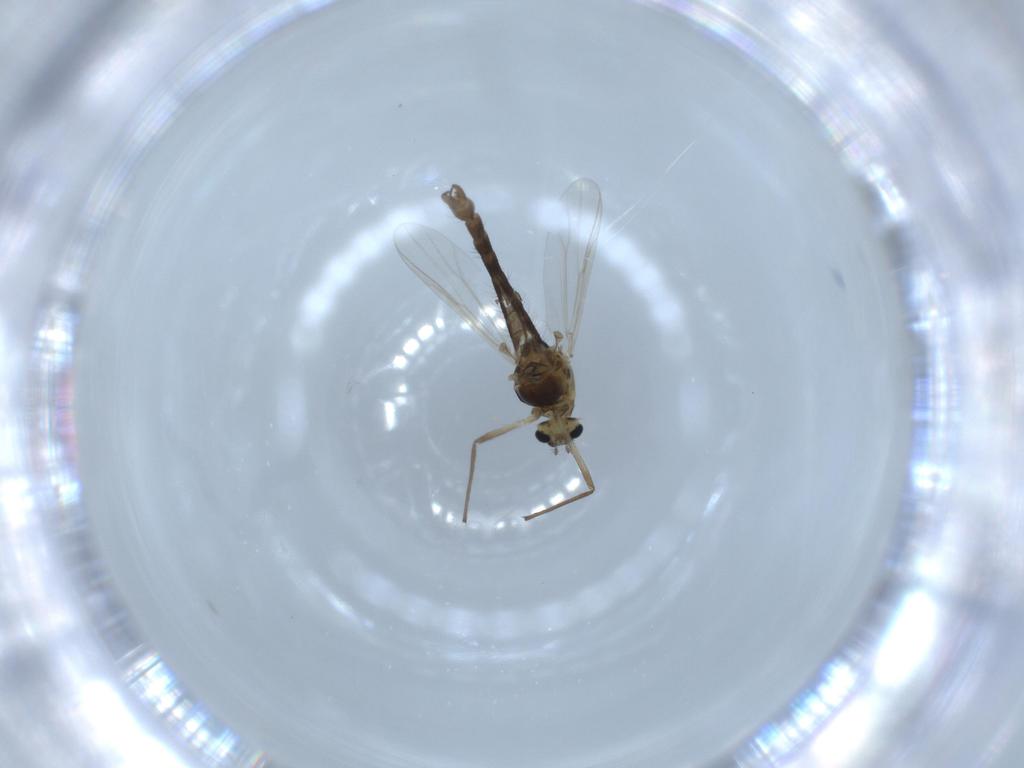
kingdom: Animalia
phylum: Arthropoda
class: Insecta
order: Diptera
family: Chironomidae
